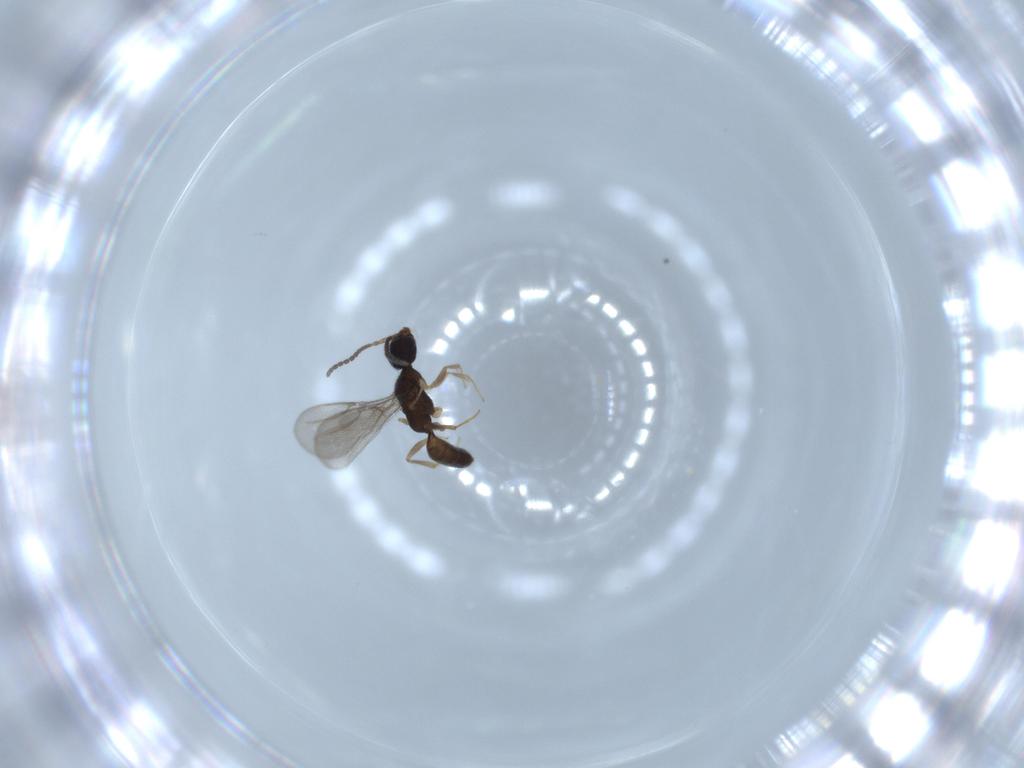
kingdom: Animalia
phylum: Arthropoda
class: Insecta
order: Hymenoptera
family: Bethylidae
